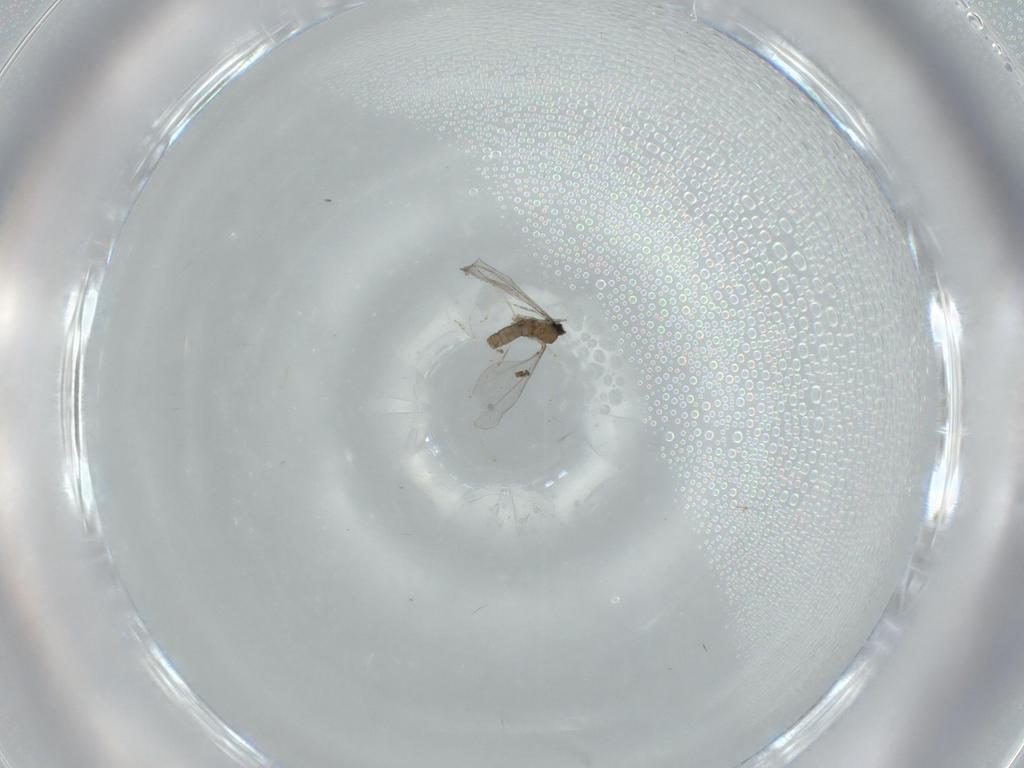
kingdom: Animalia
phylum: Arthropoda
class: Insecta
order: Diptera
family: Cecidomyiidae
